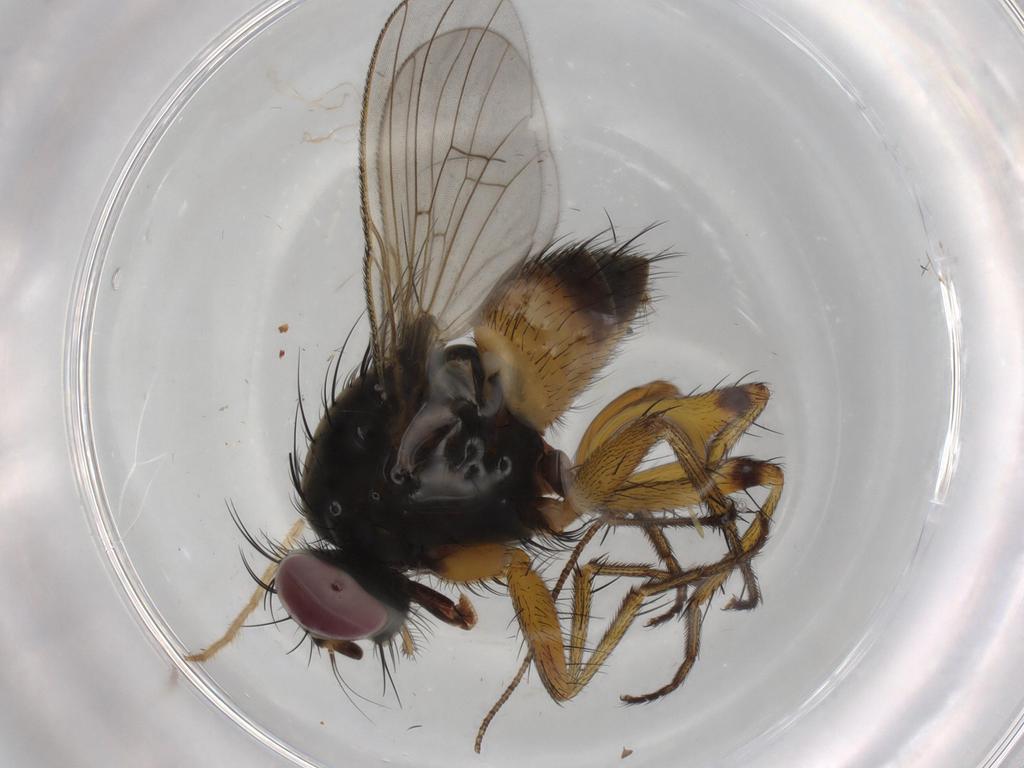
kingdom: Animalia
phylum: Arthropoda
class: Insecta
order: Diptera
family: Muscidae
